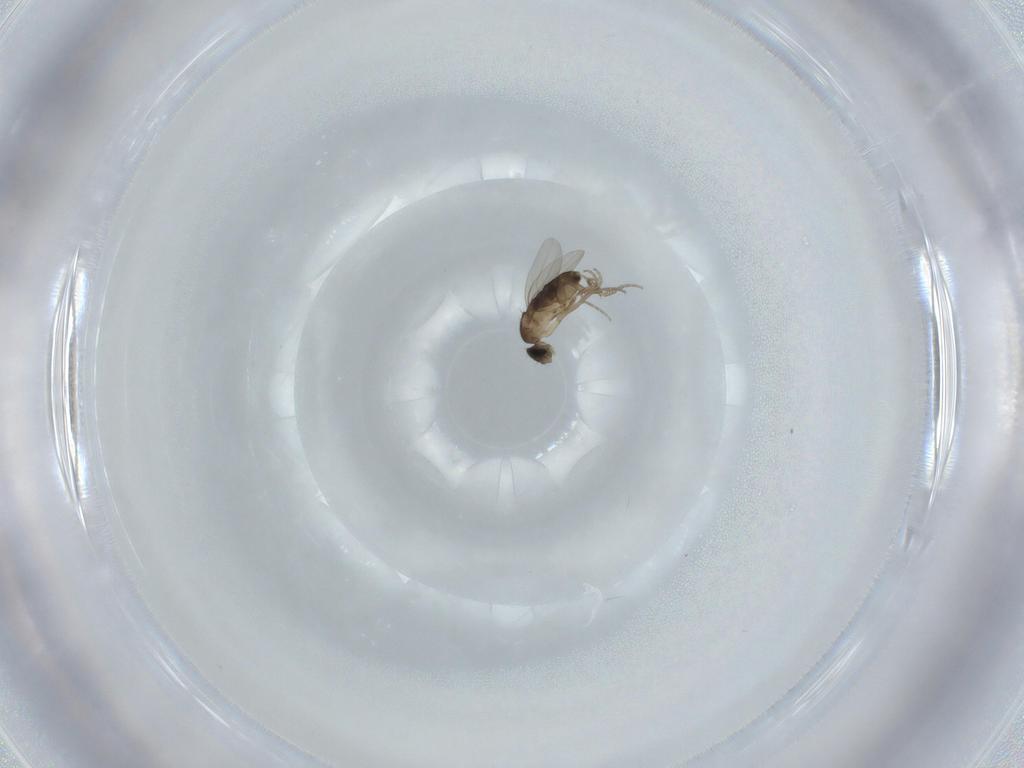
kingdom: Animalia
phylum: Arthropoda
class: Insecta
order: Diptera
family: Phoridae
